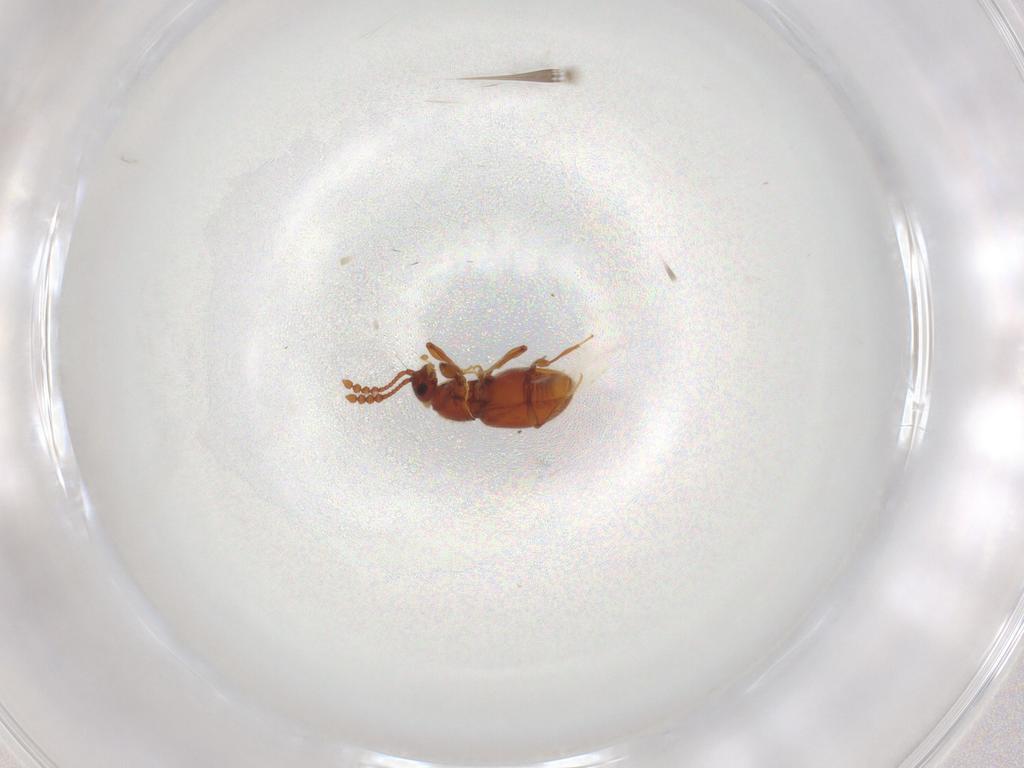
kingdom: Animalia
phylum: Arthropoda
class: Insecta
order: Coleoptera
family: Staphylinidae
